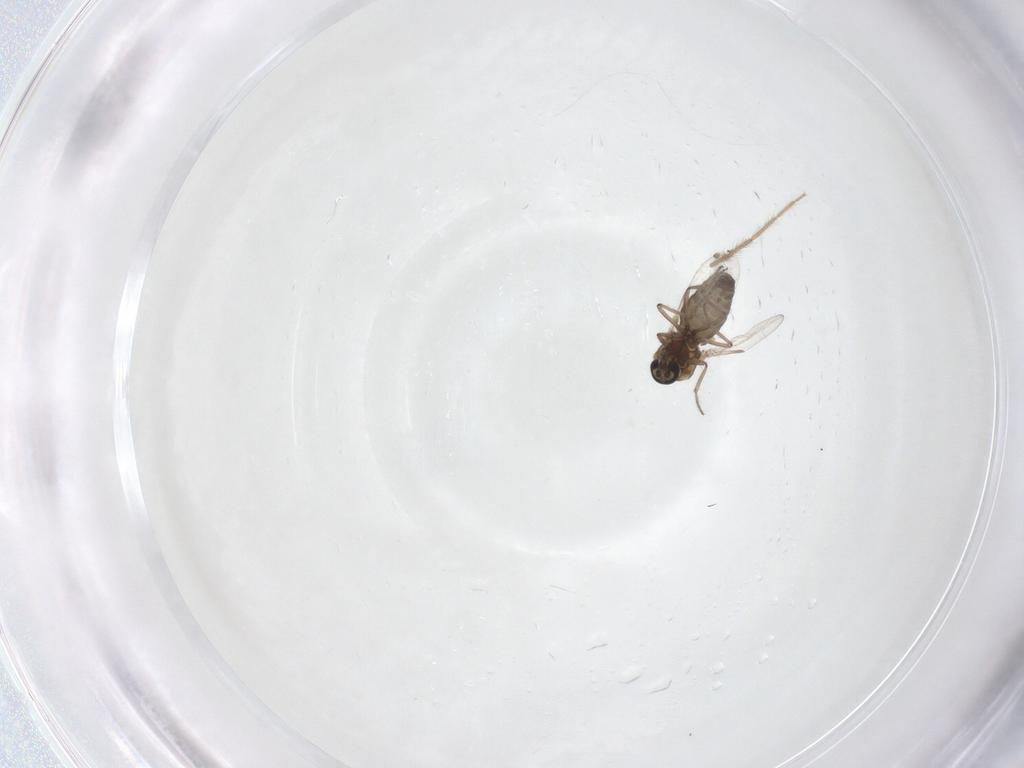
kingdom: Animalia
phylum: Arthropoda
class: Insecta
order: Diptera
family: Ceratopogonidae
